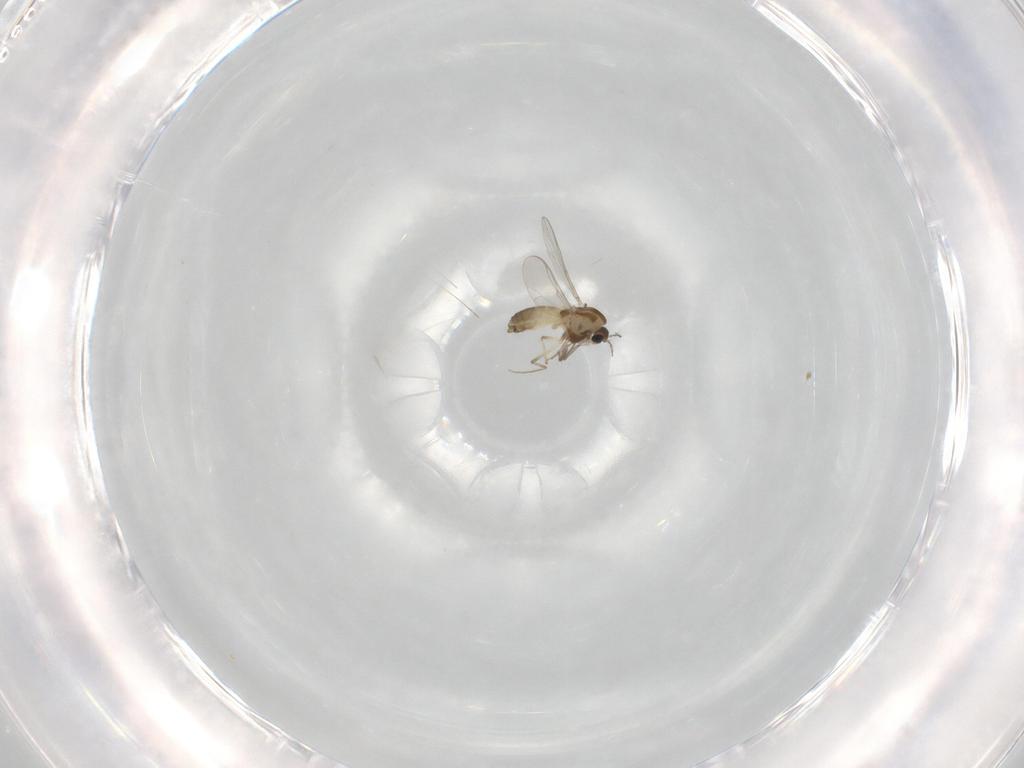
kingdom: Animalia
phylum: Arthropoda
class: Insecta
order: Diptera
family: Chironomidae
